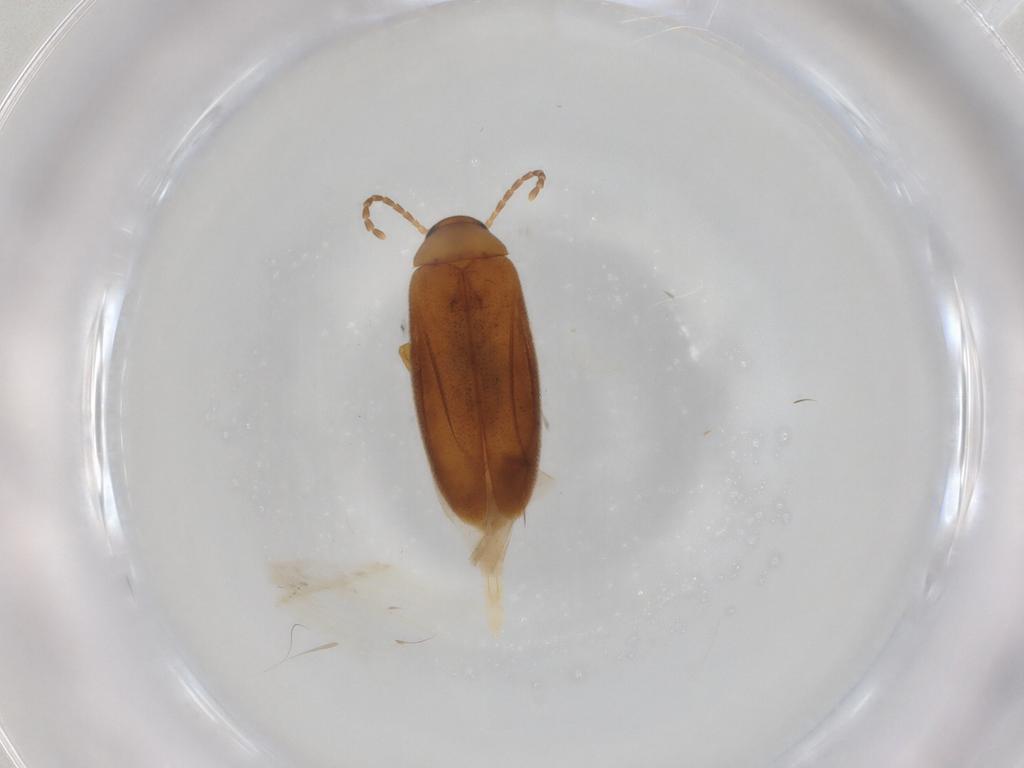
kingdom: Animalia
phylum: Arthropoda
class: Insecta
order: Coleoptera
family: Scraptiidae
